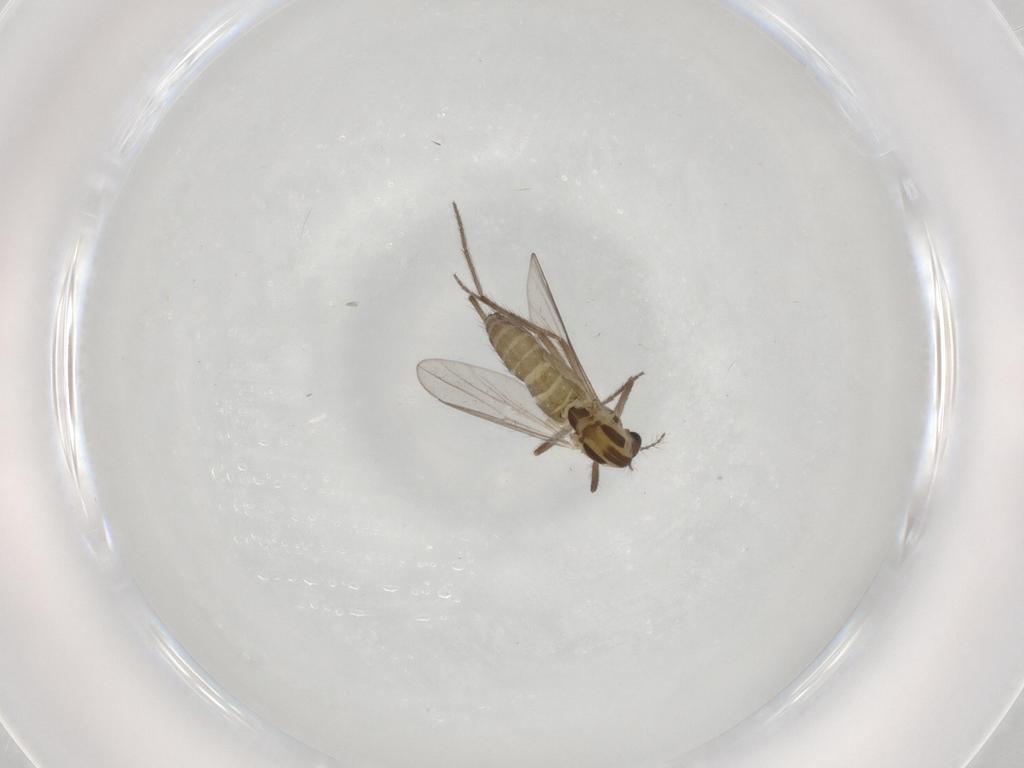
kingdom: Animalia
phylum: Arthropoda
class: Insecta
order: Diptera
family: Chironomidae
